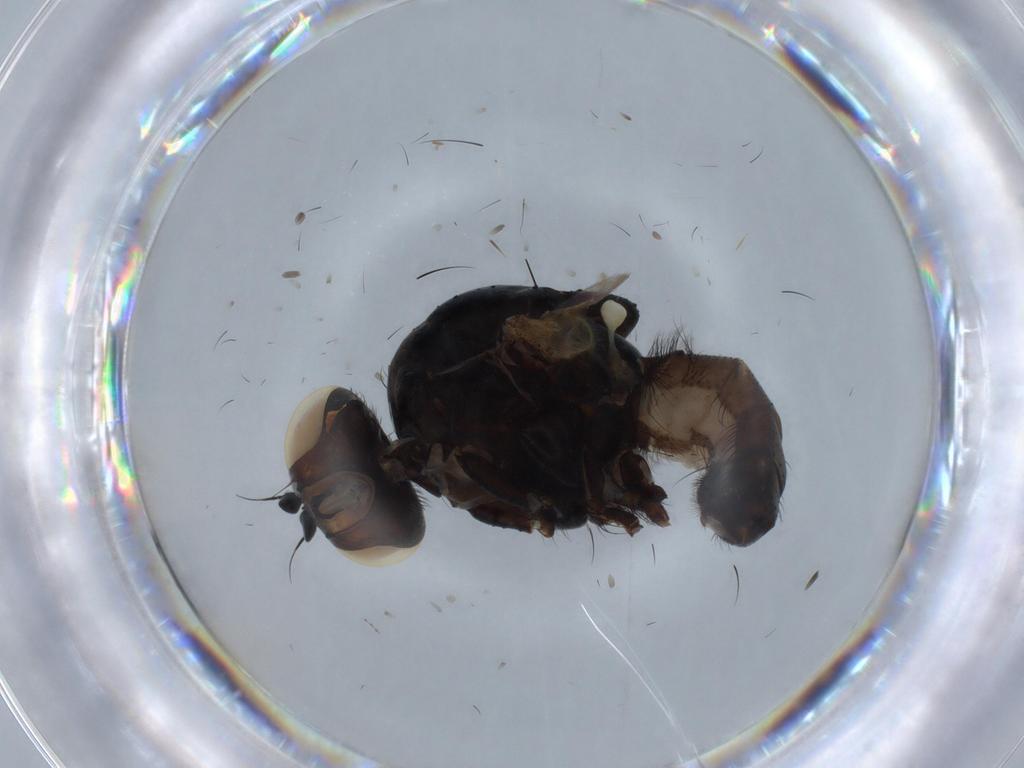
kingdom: Animalia
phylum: Arthropoda
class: Insecta
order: Diptera
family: Anthomyiidae
